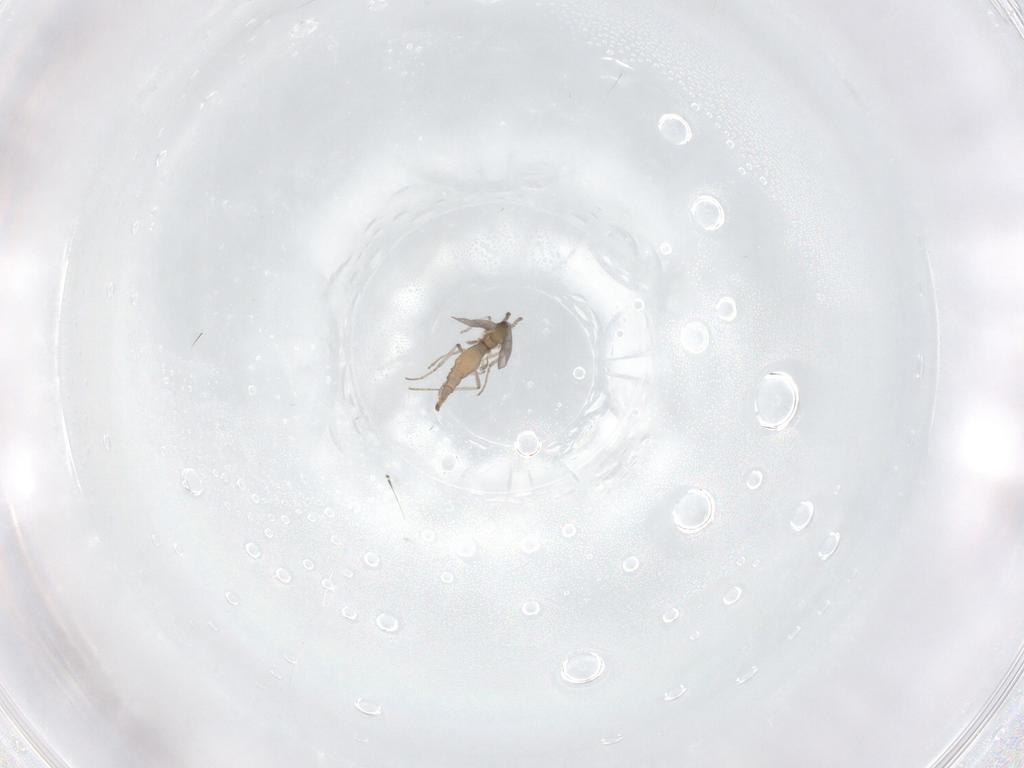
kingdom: Animalia
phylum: Arthropoda
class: Insecta
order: Diptera
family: Cecidomyiidae
